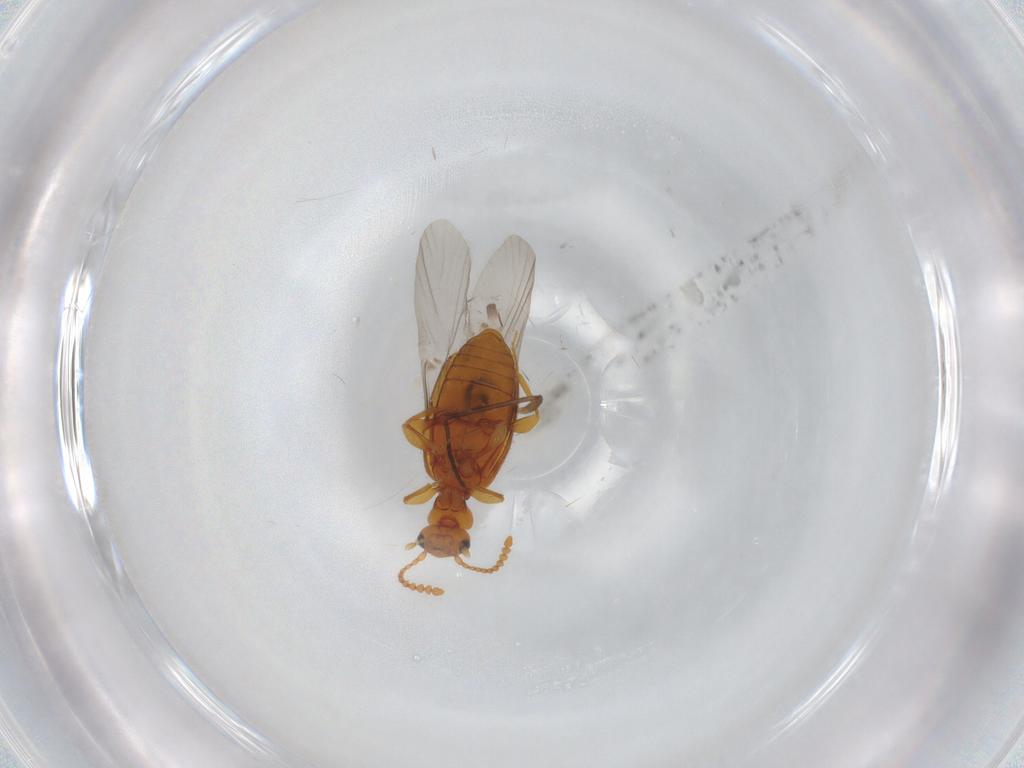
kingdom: Animalia
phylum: Arthropoda
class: Insecta
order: Coleoptera
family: Anthicidae
